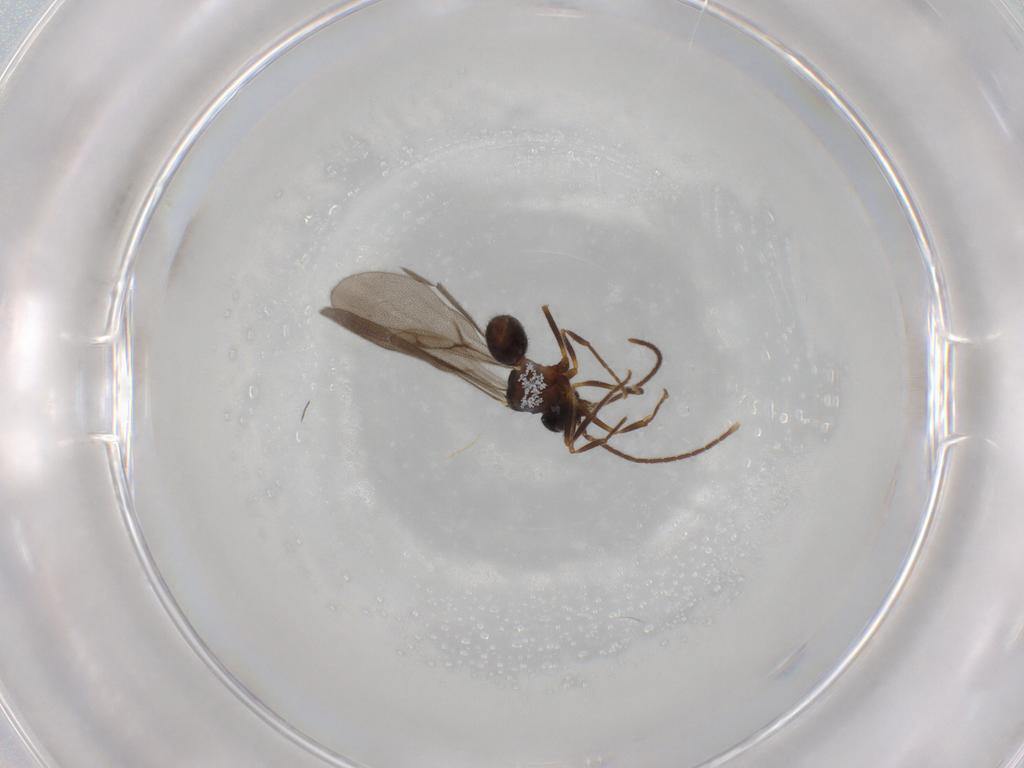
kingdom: Animalia
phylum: Arthropoda
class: Insecta
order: Hymenoptera
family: Formicidae
